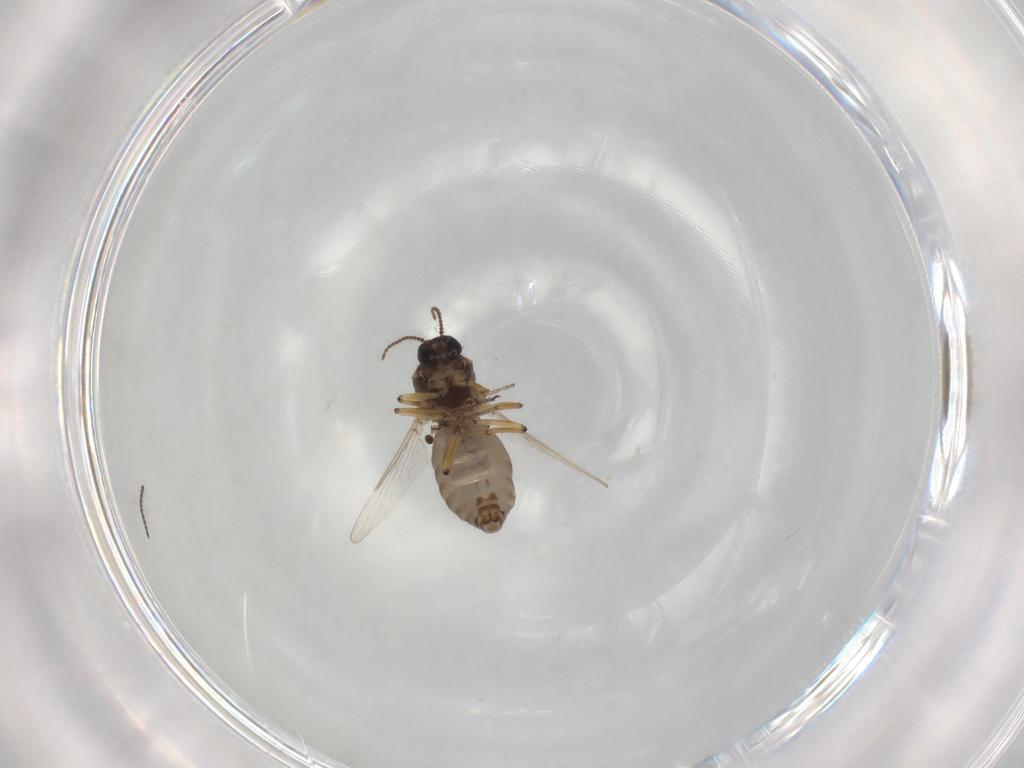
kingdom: Animalia
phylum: Arthropoda
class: Insecta
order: Diptera
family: Ceratopogonidae
